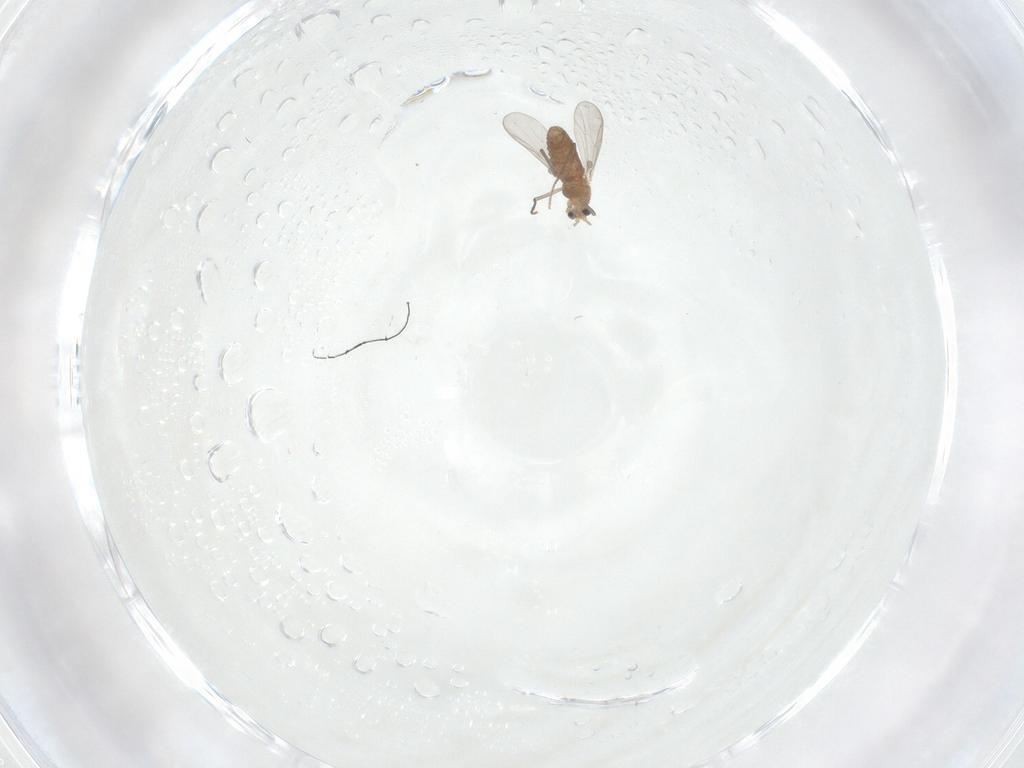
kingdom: Animalia
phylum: Arthropoda
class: Insecta
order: Diptera
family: Chironomidae
